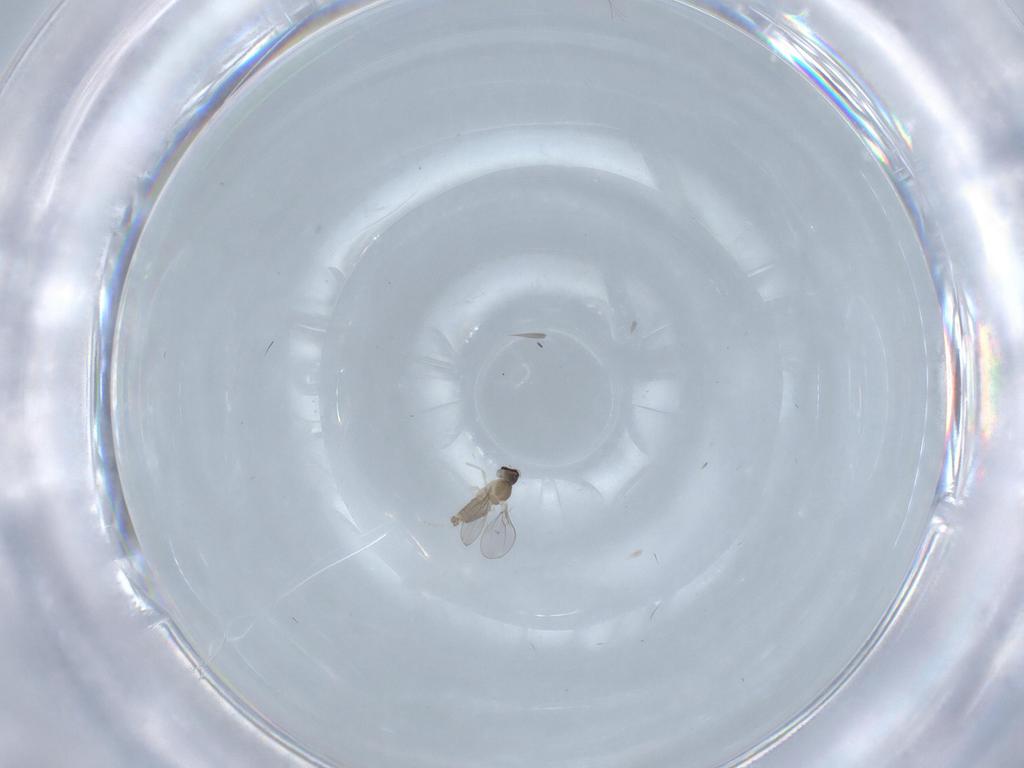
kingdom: Animalia
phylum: Arthropoda
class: Insecta
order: Diptera
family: Cecidomyiidae
